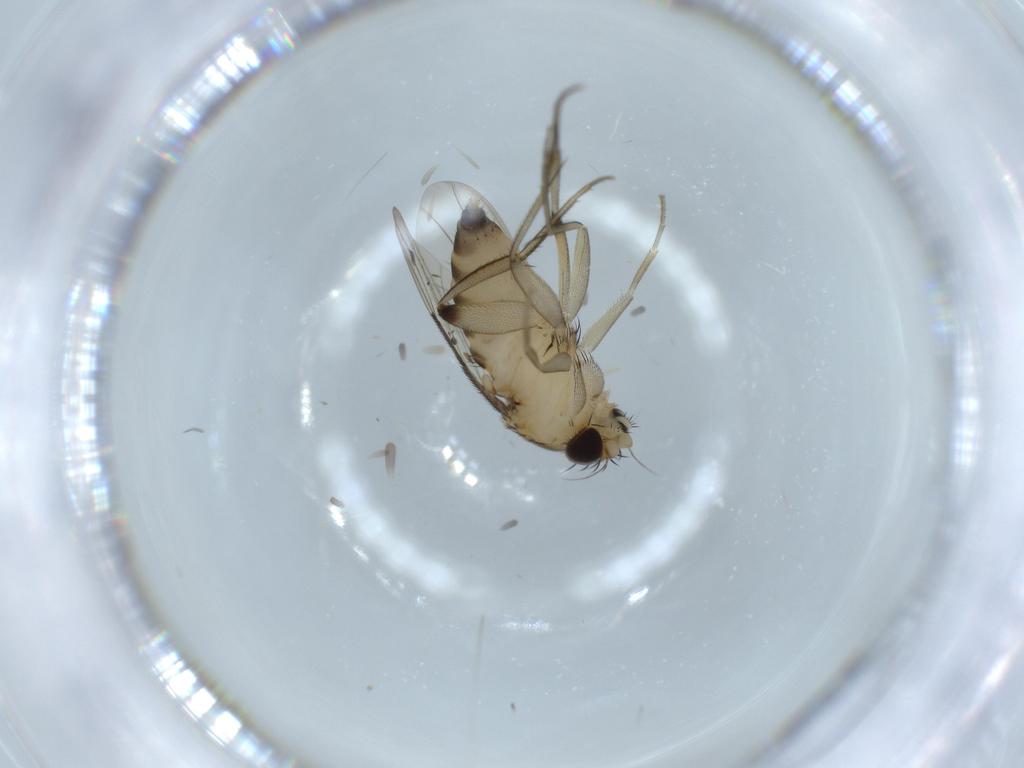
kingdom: Animalia
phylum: Arthropoda
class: Insecta
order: Diptera
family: Phoridae
